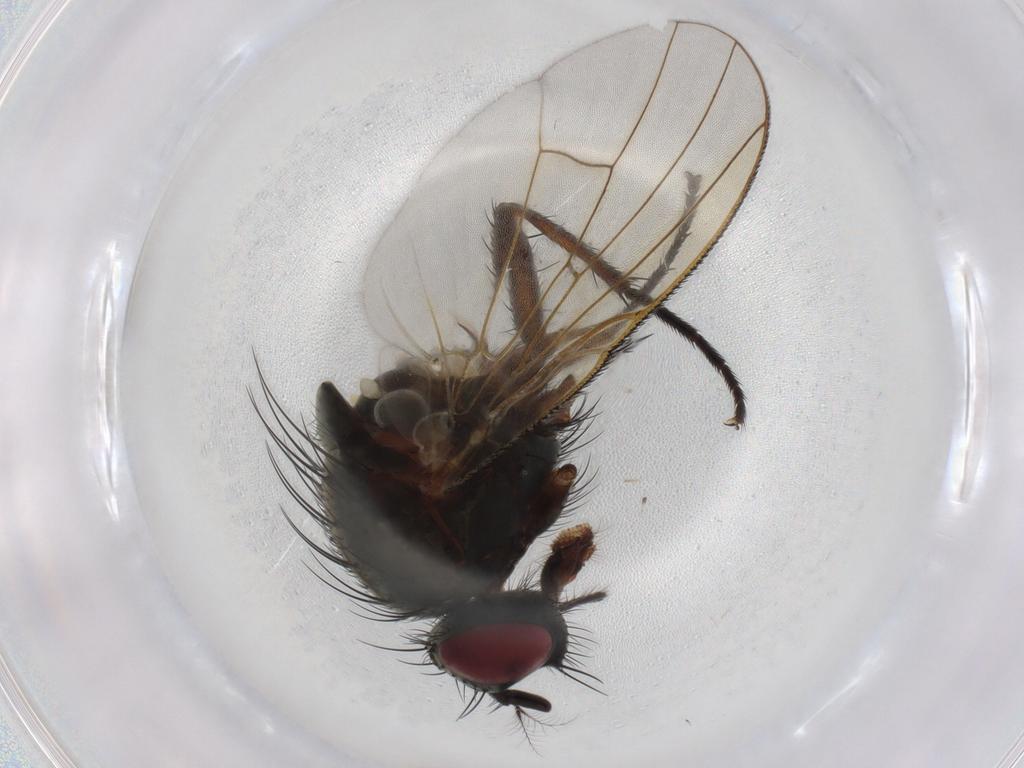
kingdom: Animalia
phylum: Arthropoda
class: Insecta
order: Diptera
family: Muscidae
